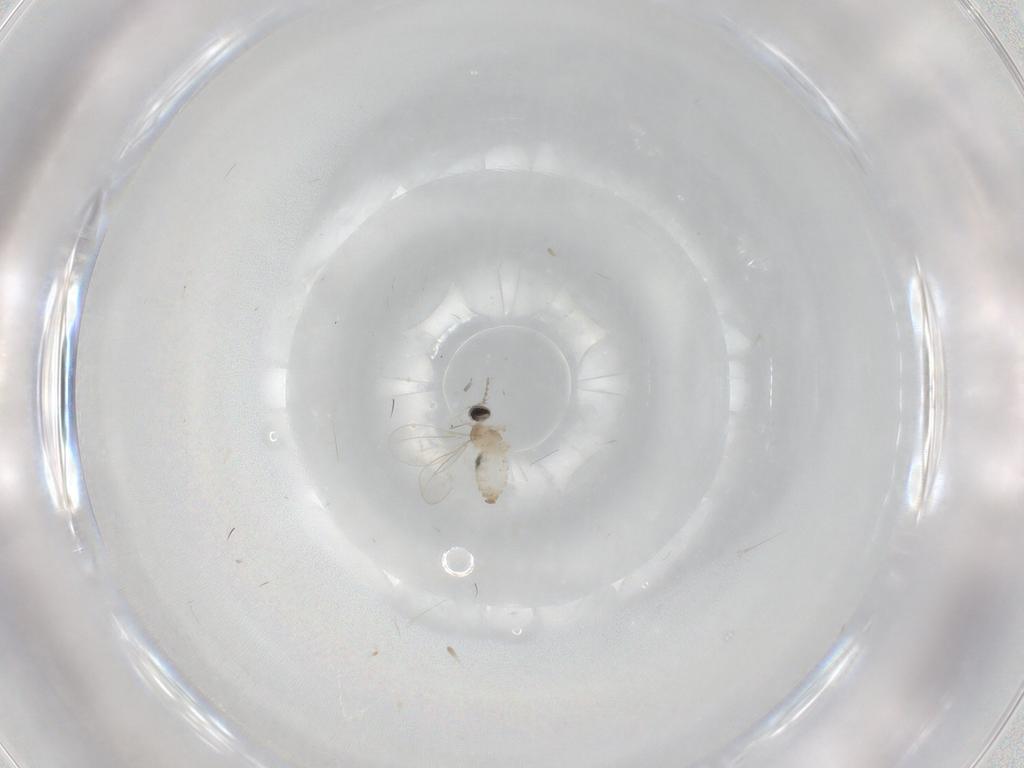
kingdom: Animalia
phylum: Arthropoda
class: Insecta
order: Diptera
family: Cecidomyiidae
